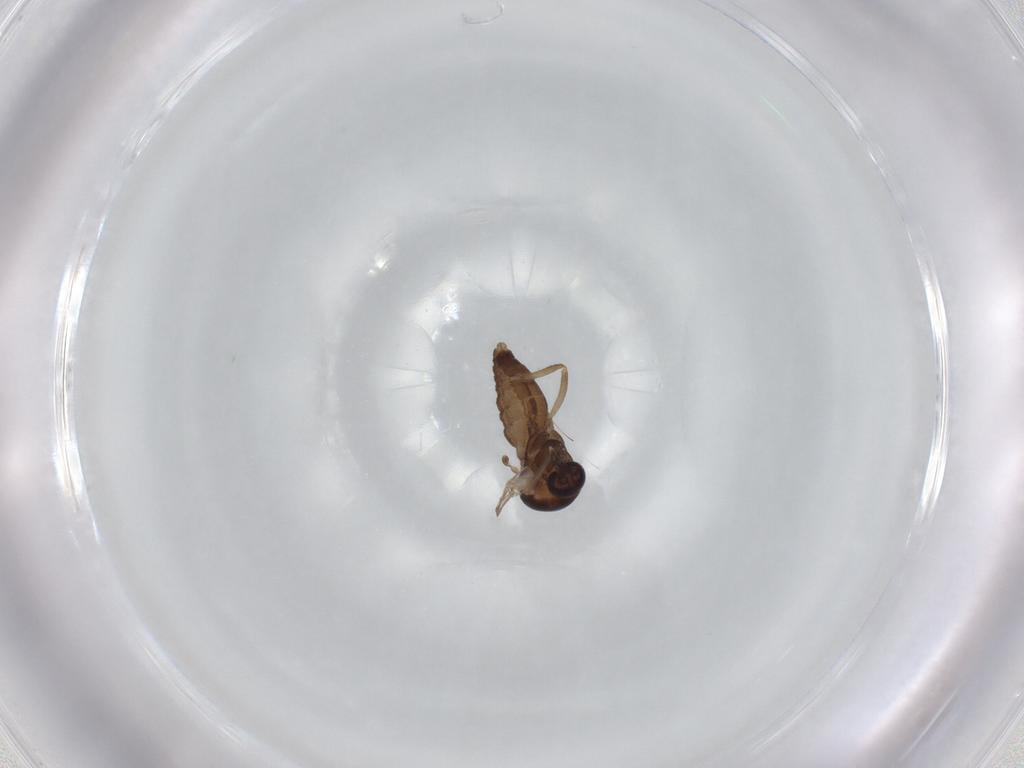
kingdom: Animalia
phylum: Arthropoda
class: Insecta
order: Diptera
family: Ceratopogonidae
